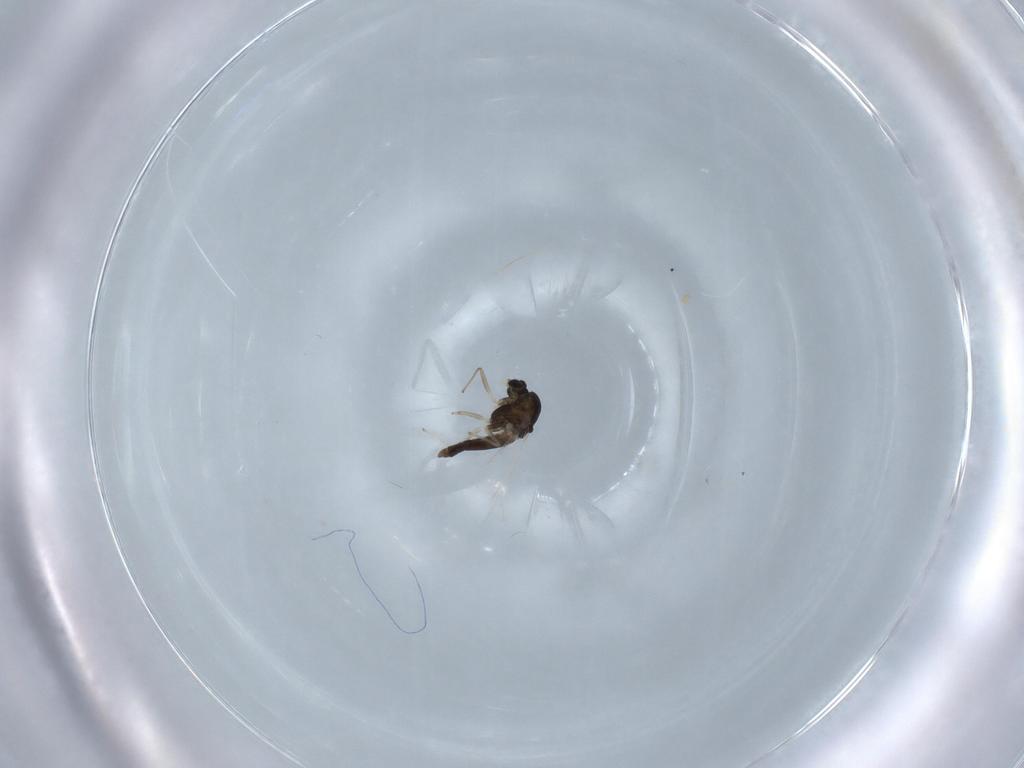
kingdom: Animalia
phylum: Arthropoda
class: Insecta
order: Diptera
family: Chironomidae
